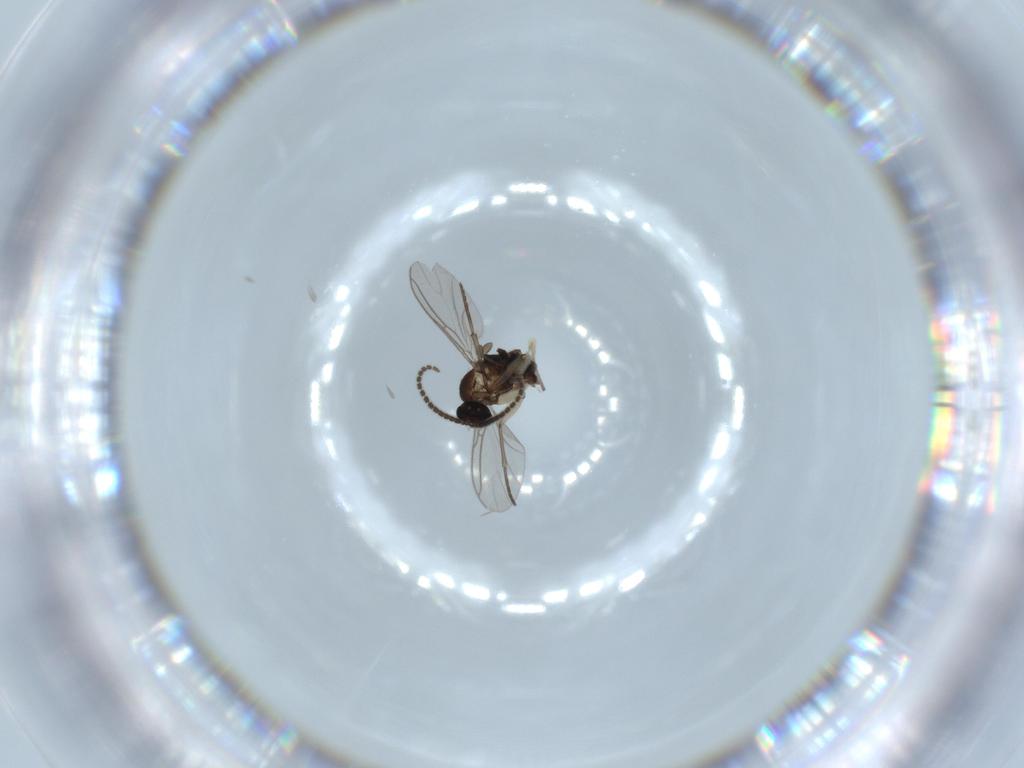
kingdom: Animalia
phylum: Arthropoda
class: Insecta
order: Diptera
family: Sciaridae
